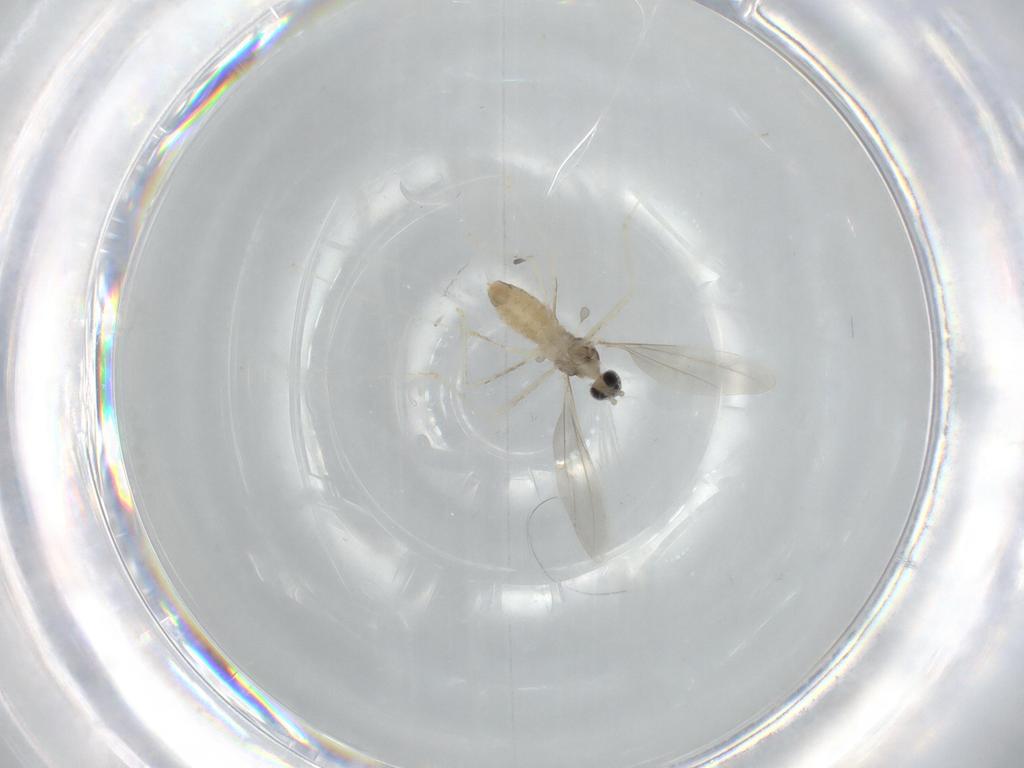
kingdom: Animalia
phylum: Arthropoda
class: Insecta
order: Diptera
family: Cecidomyiidae
